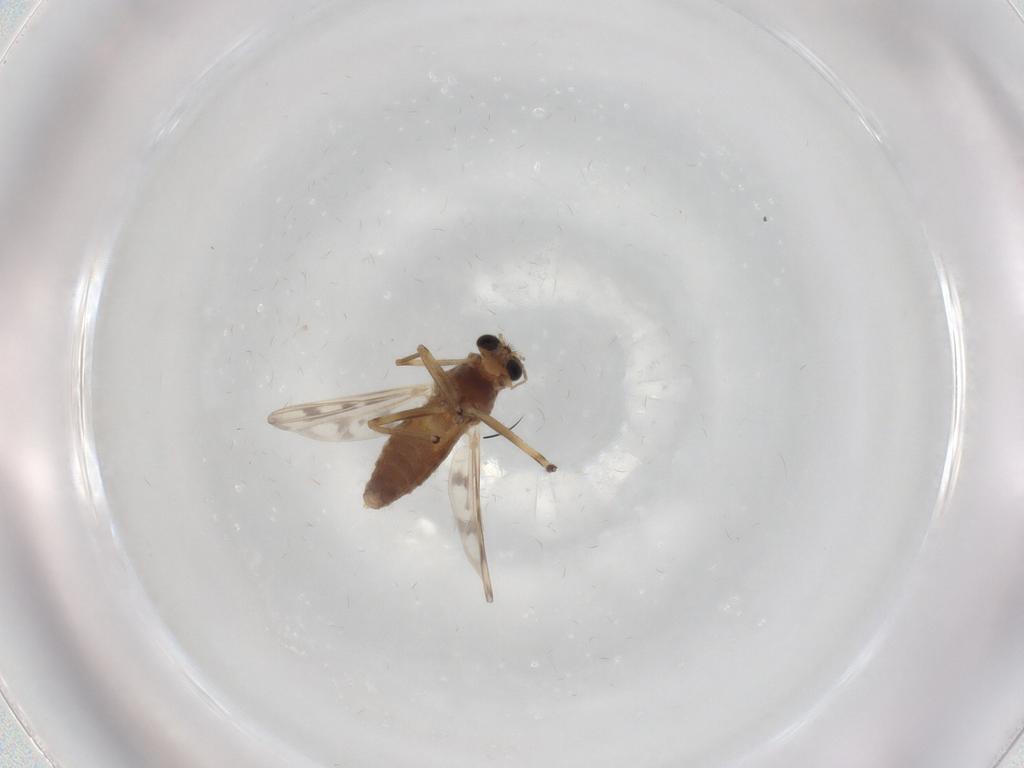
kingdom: Animalia
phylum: Arthropoda
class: Insecta
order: Diptera
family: Chironomidae
